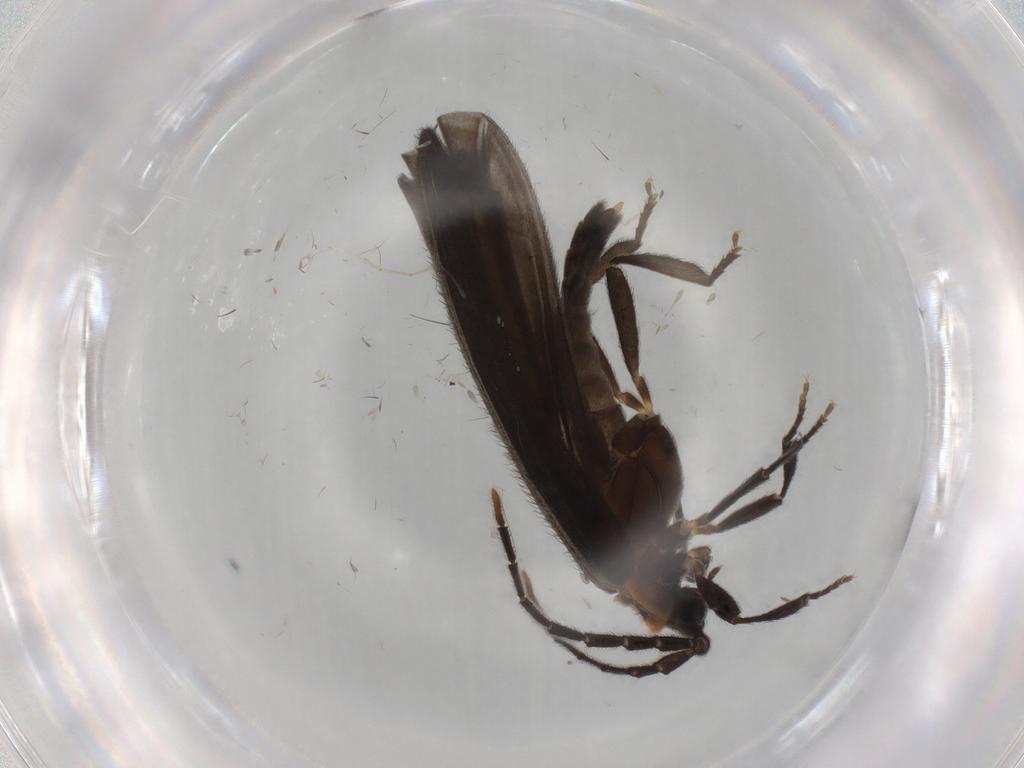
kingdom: Animalia
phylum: Arthropoda
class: Insecta
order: Coleoptera
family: Lycidae
